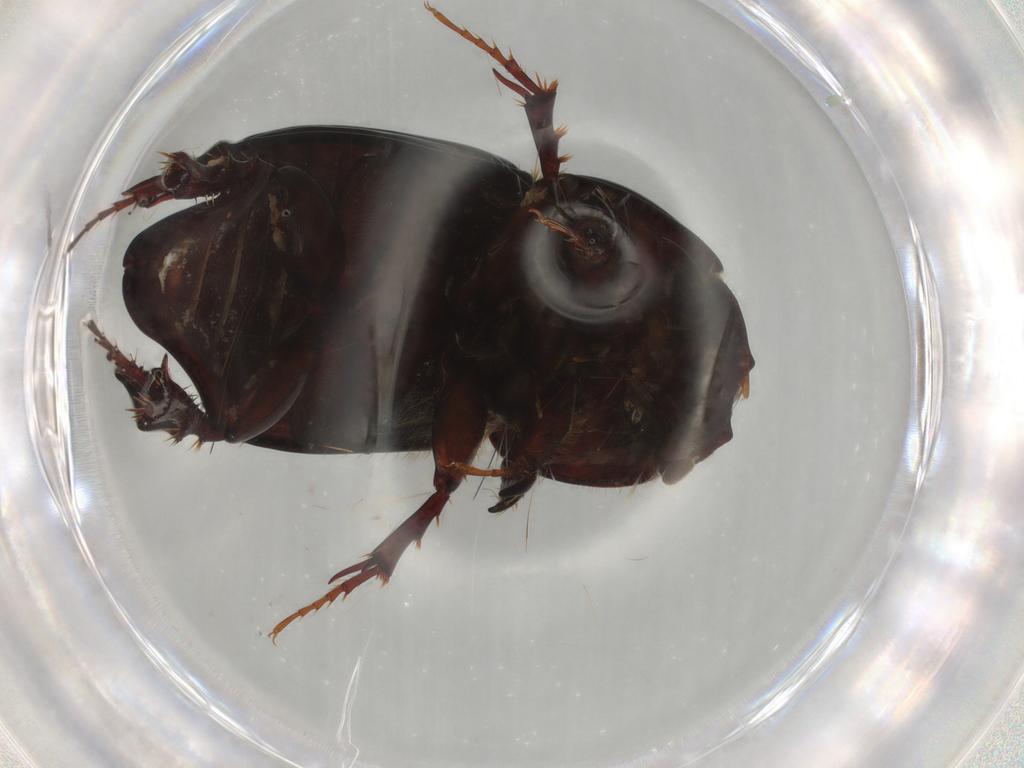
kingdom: Animalia
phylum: Arthropoda
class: Insecta
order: Coleoptera
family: Scarabaeidae
